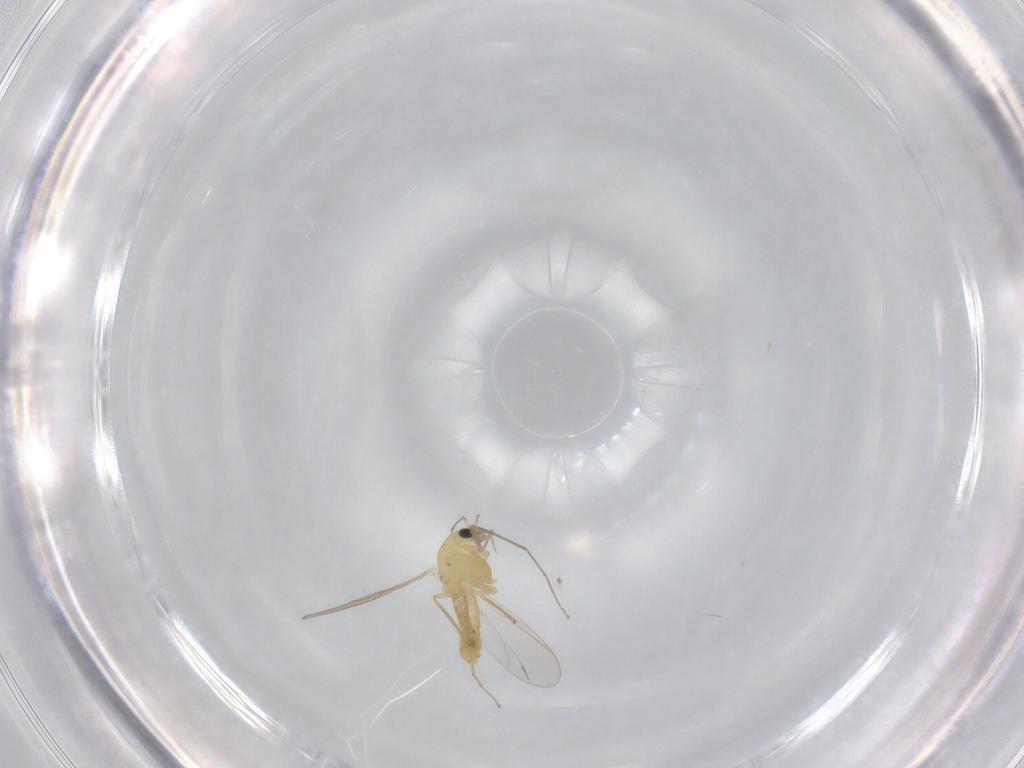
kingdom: Animalia
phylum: Arthropoda
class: Insecta
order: Diptera
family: Chironomidae
